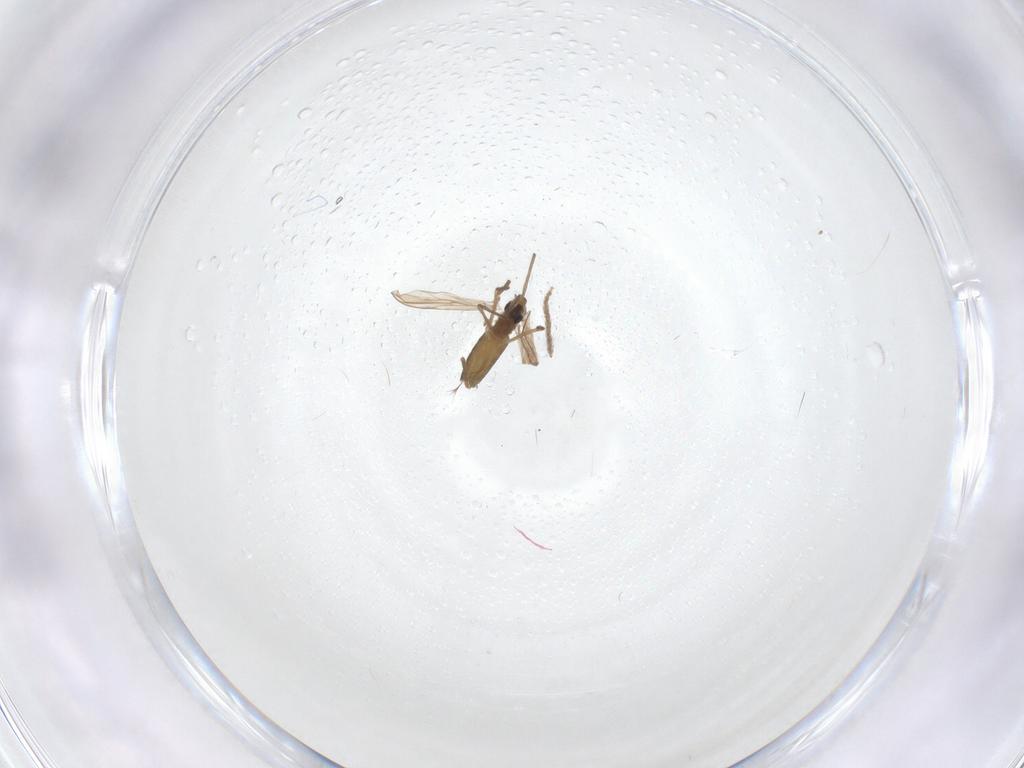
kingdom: Animalia
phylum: Arthropoda
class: Insecta
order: Diptera
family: Chironomidae
